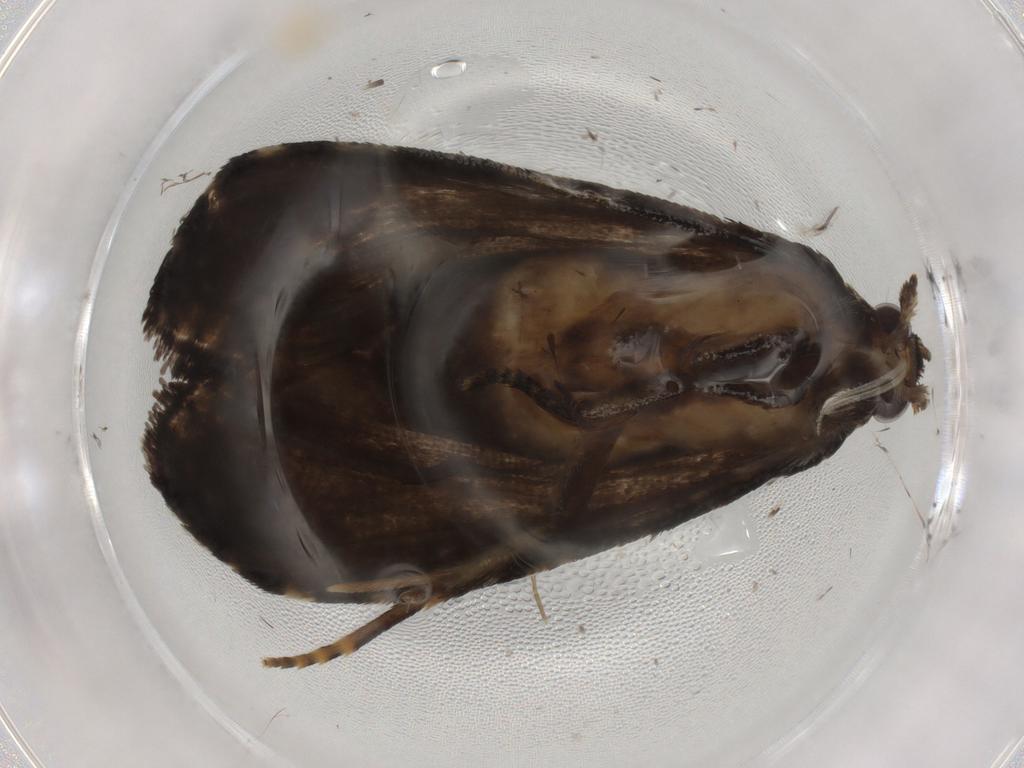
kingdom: Animalia
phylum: Arthropoda
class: Insecta
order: Lepidoptera
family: Tortricidae
